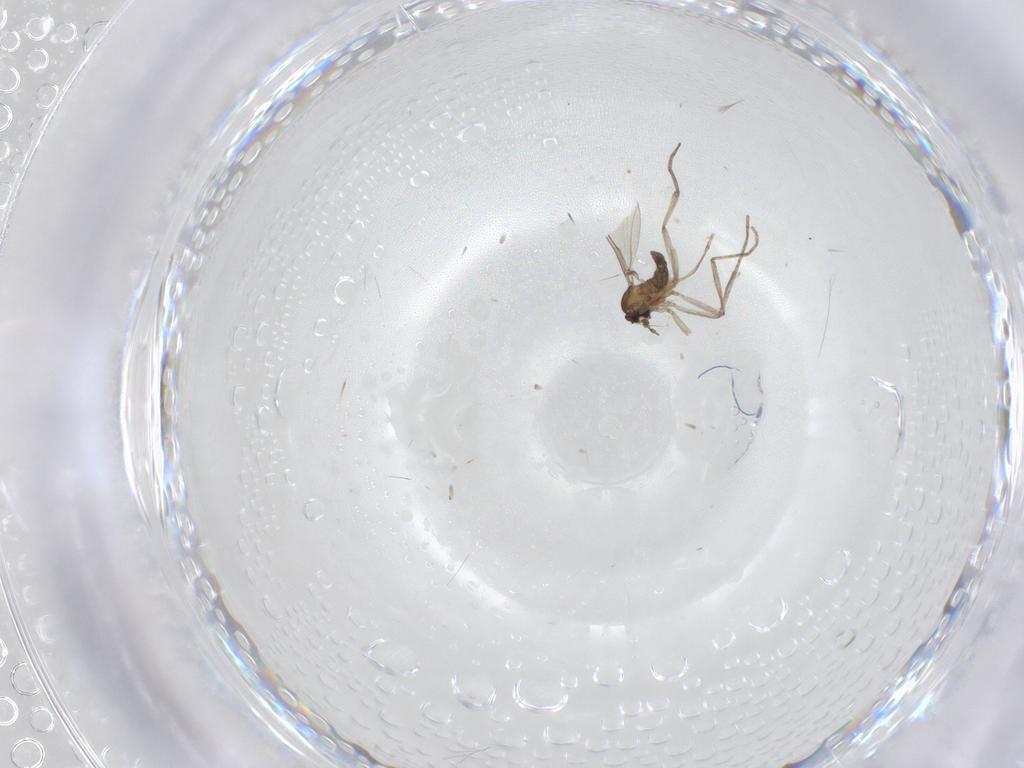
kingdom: Animalia
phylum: Arthropoda
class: Insecta
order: Diptera
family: Cecidomyiidae
